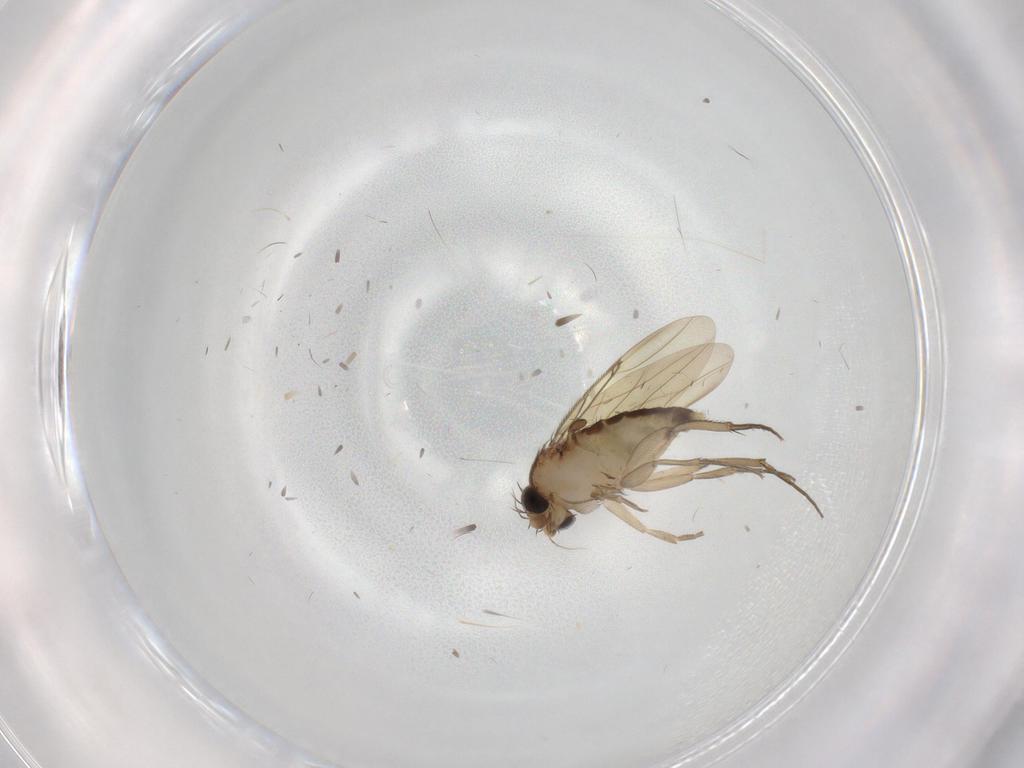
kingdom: Animalia
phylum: Arthropoda
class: Insecta
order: Diptera
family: Phoridae
